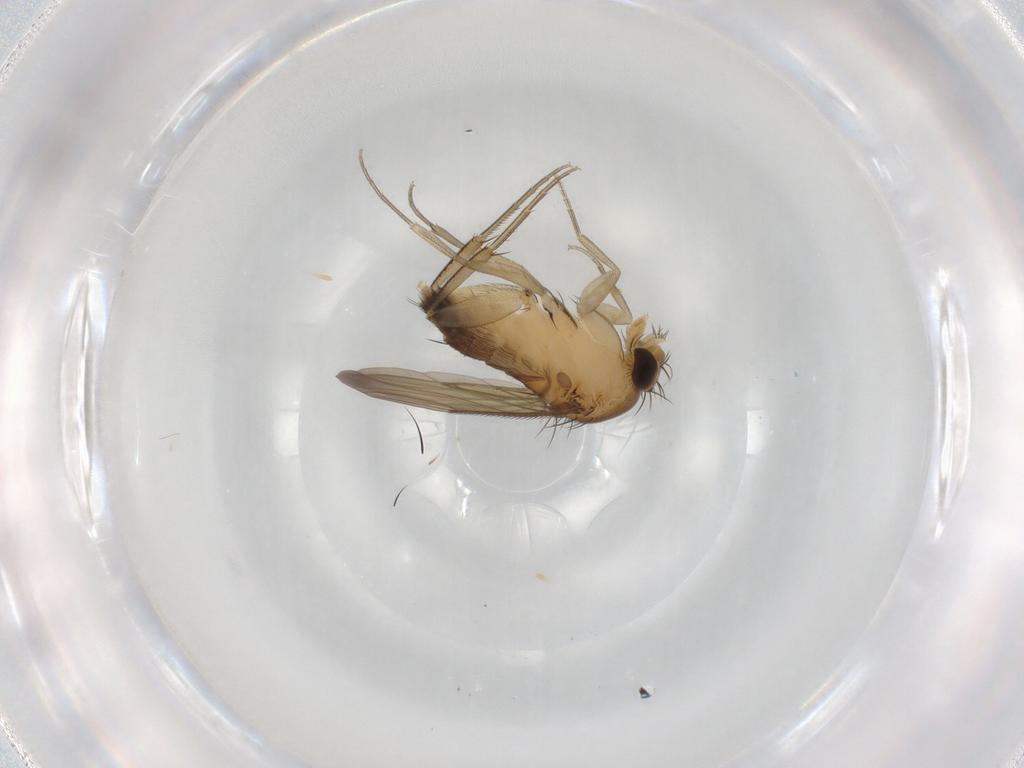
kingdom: Animalia
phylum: Arthropoda
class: Insecta
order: Diptera
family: Phoridae
